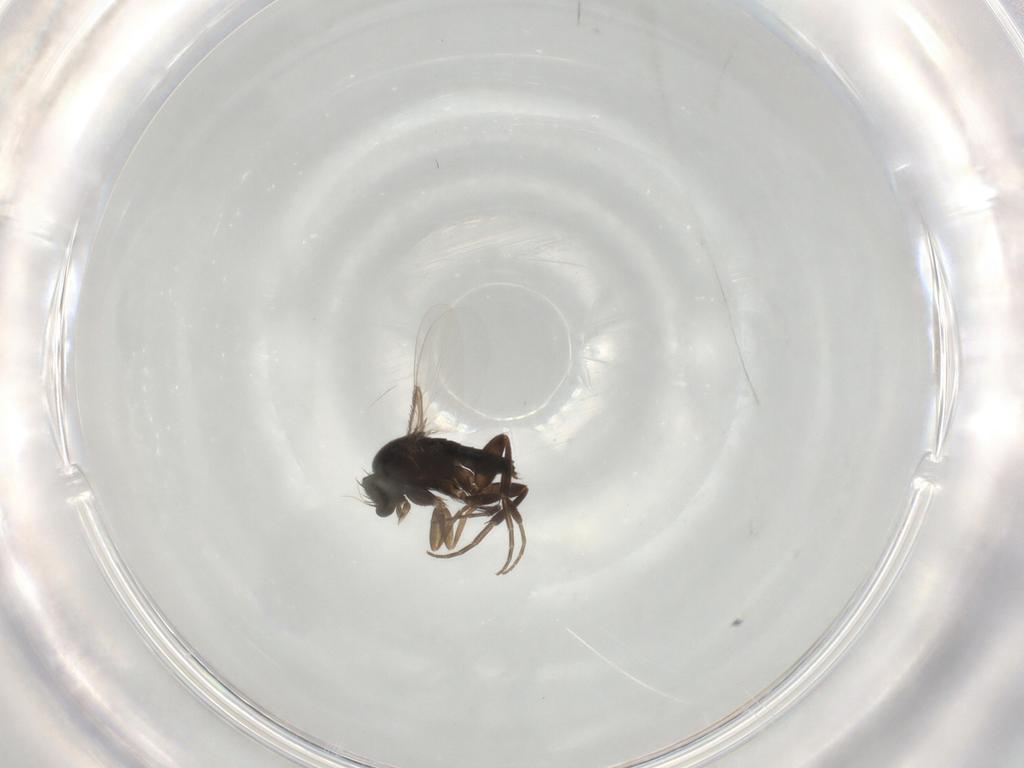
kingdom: Animalia
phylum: Arthropoda
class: Insecta
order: Diptera
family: Phoridae
